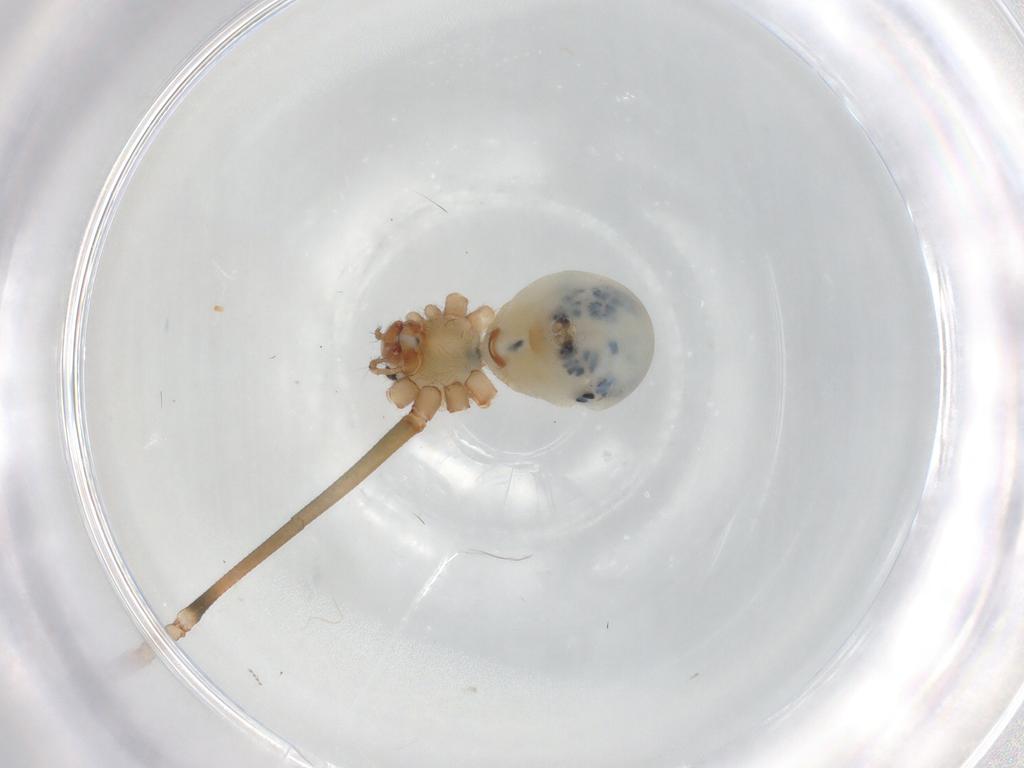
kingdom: Animalia
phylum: Arthropoda
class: Arachnida
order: Araneae
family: Pholcidae
